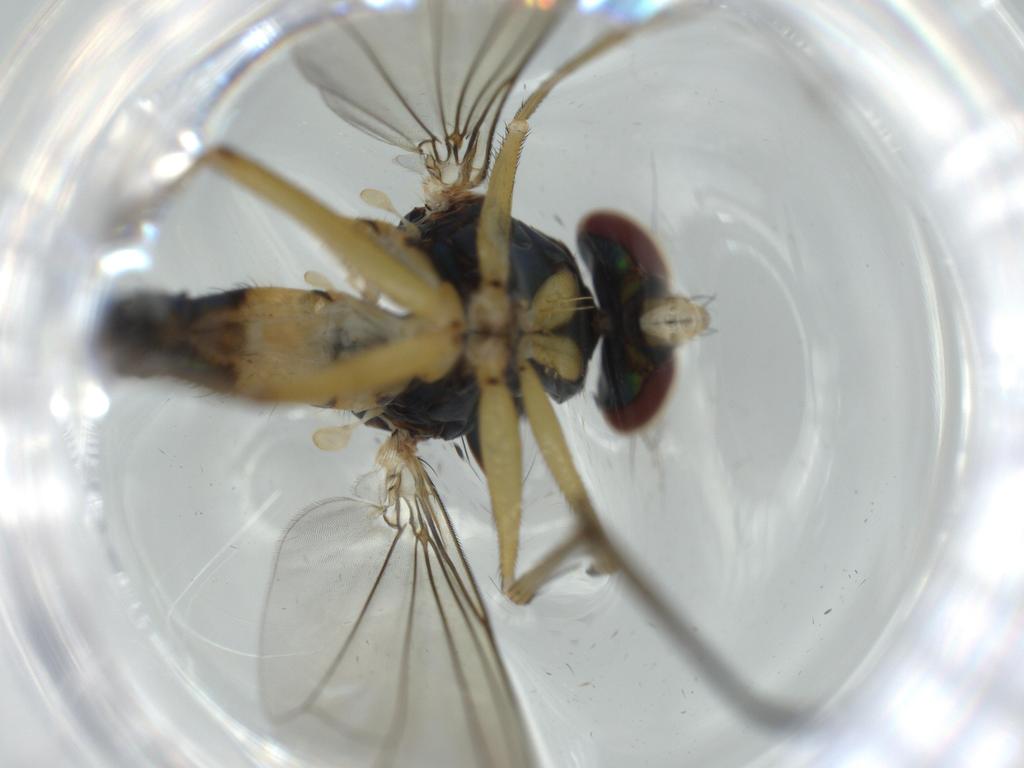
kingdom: Animalia
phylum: Arthropoda
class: Insecta
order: Diptera
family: Dolichopodidae
